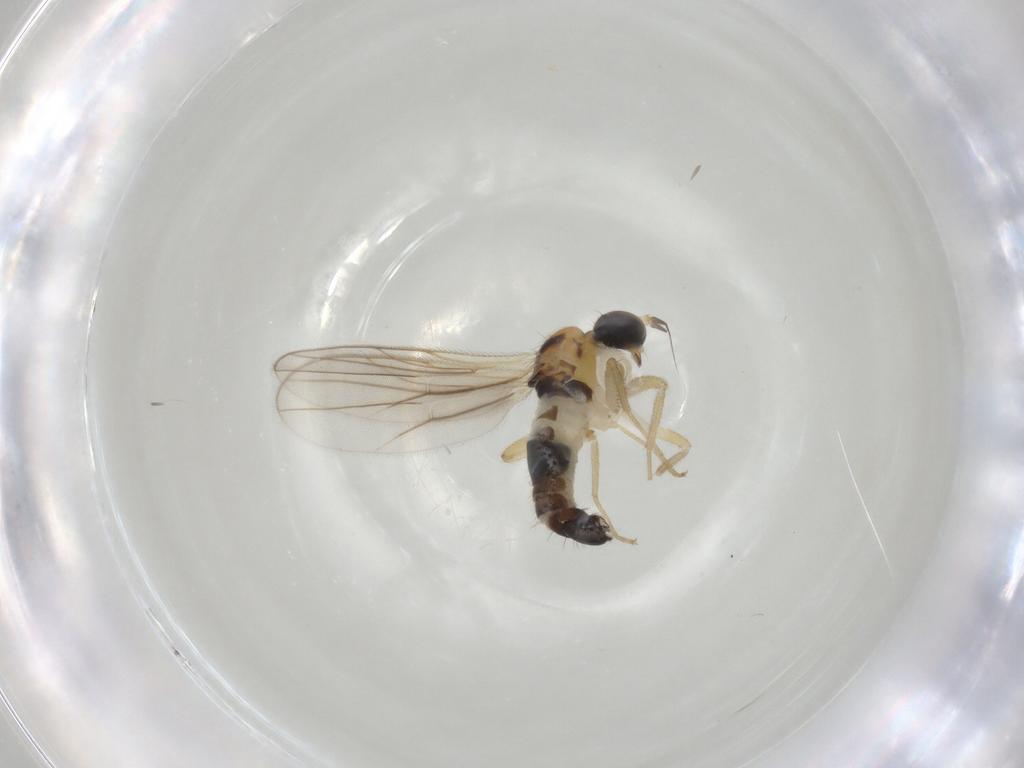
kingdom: Animalia
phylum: Arthropoda
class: Insecta
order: Diptera
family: Hybotidae
